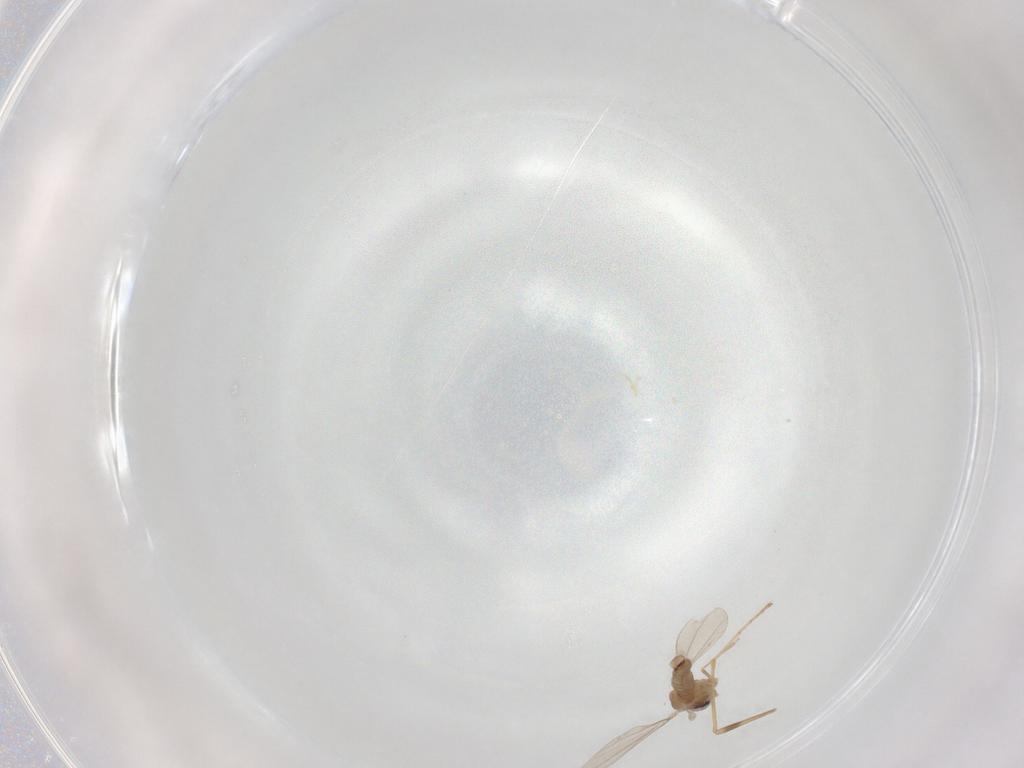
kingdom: Animalia
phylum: Arthropoda
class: Insecta
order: Diptera
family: Cecidomyiidae
